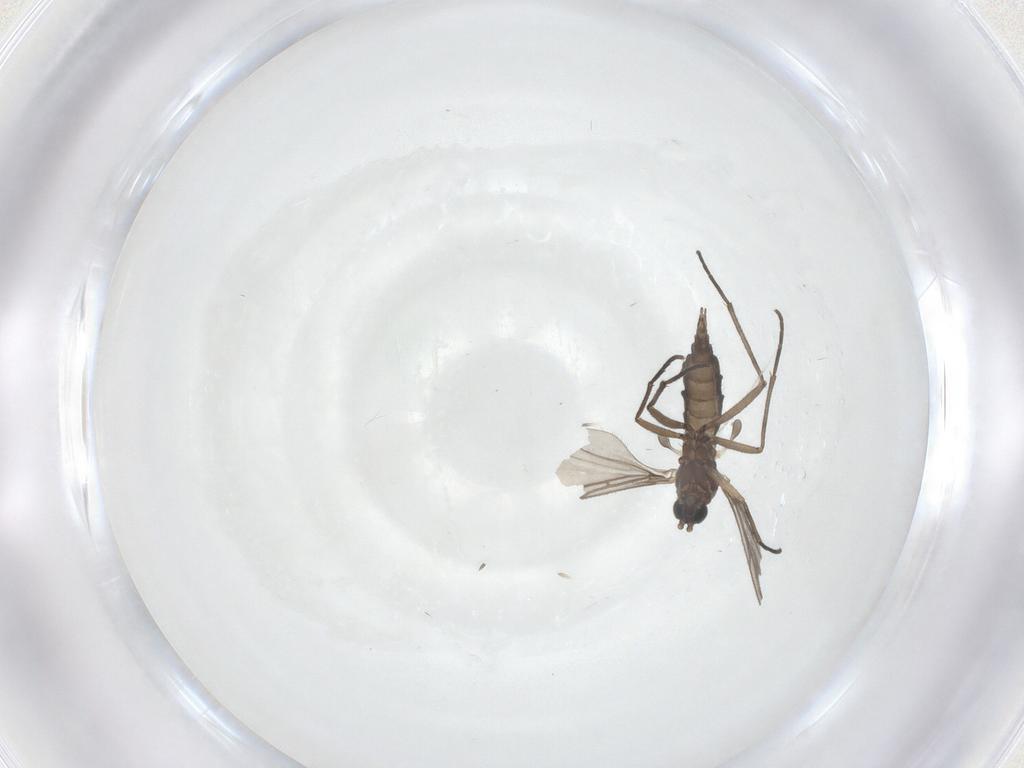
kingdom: Animalia
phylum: Arthropoda
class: Insecta
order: Diptera
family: Sciaridae
